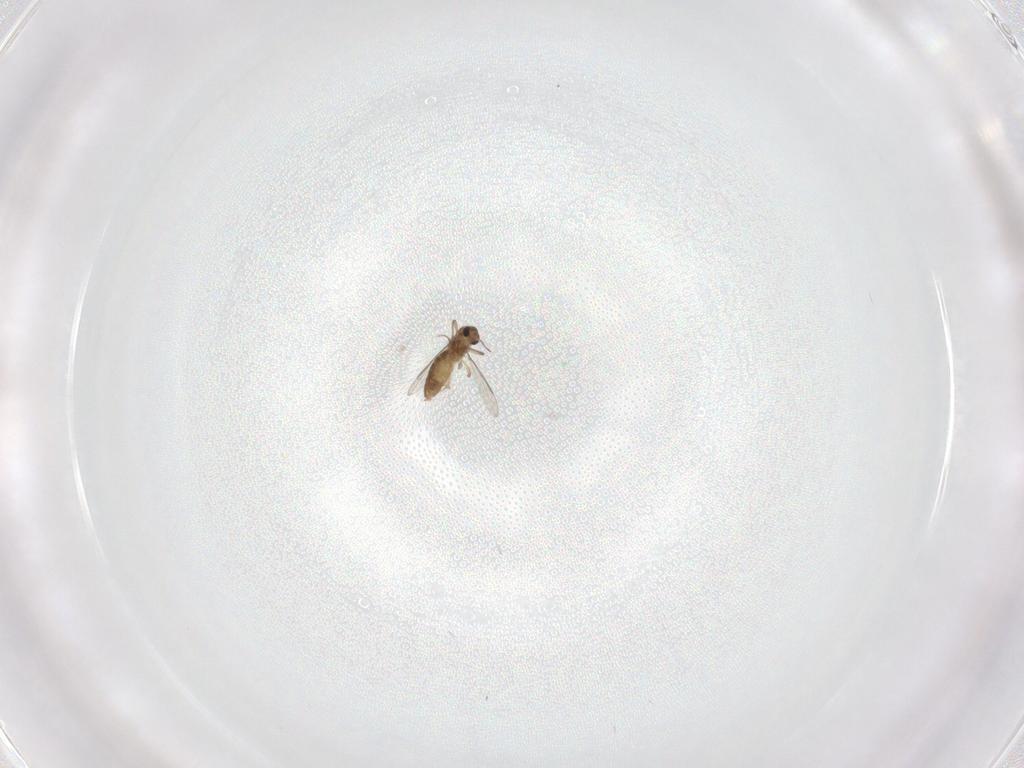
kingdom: Animalia
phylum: Arthropoda
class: Insecta
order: Diptera
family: Chironomidae
